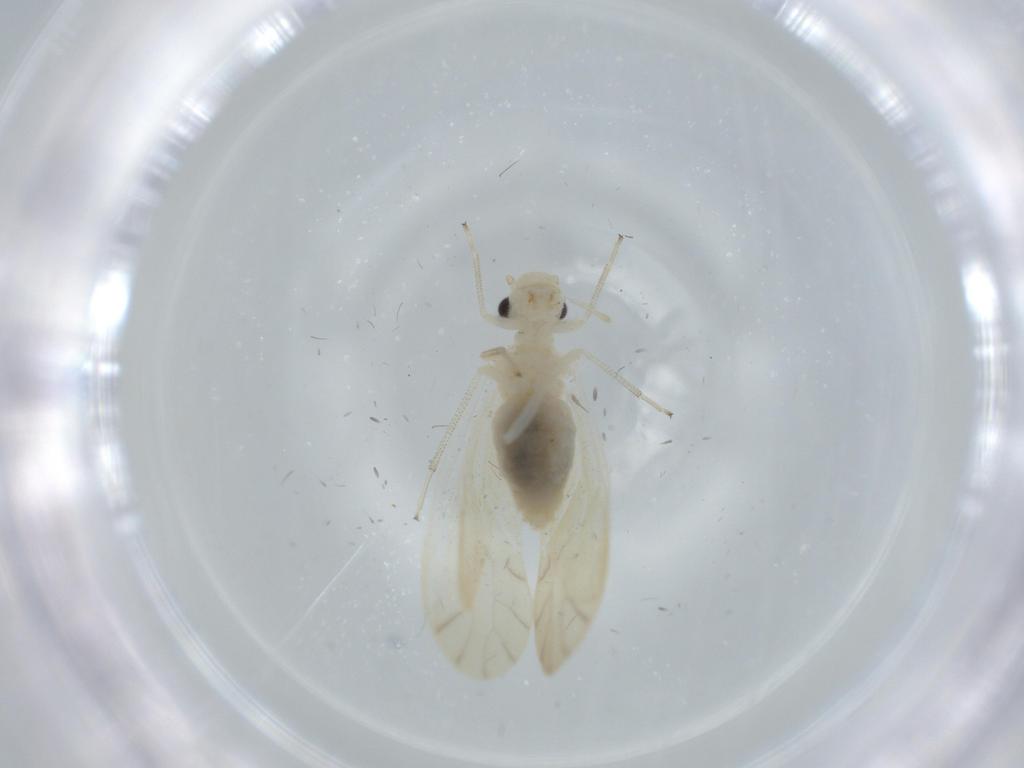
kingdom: Animalia
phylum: Arthropoda
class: Insecta
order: Psocodea
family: Caeciliusidae
